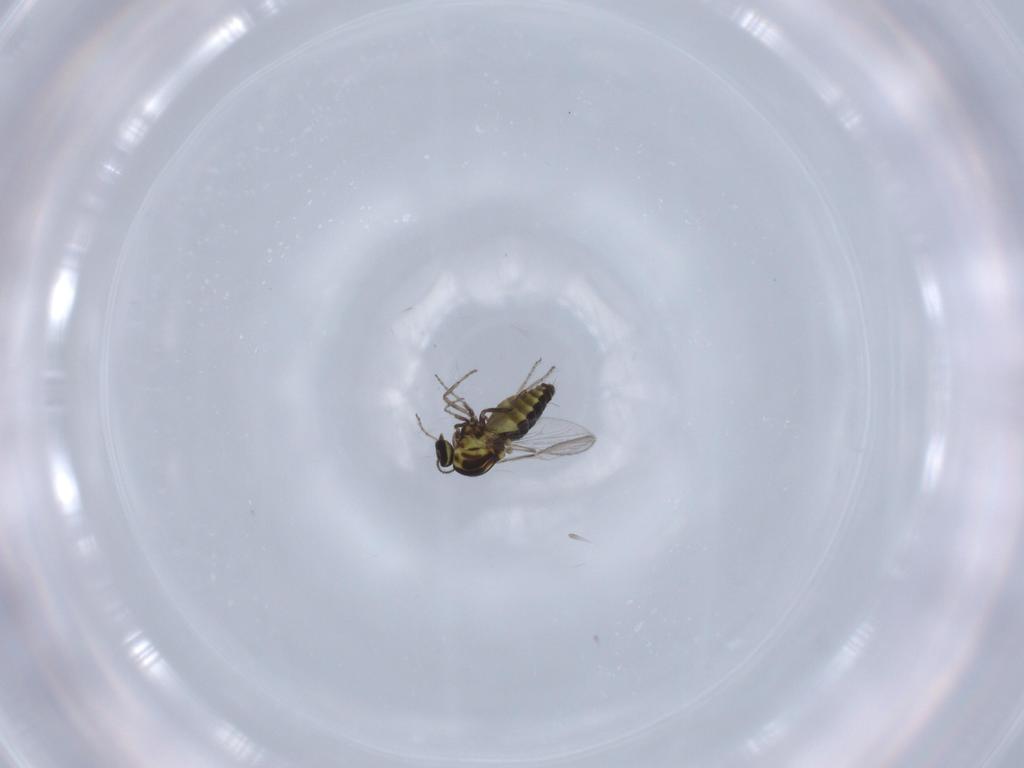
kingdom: Animalia
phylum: Arthropoda
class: Insecta
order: Diptera
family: Ceratopogonidae
